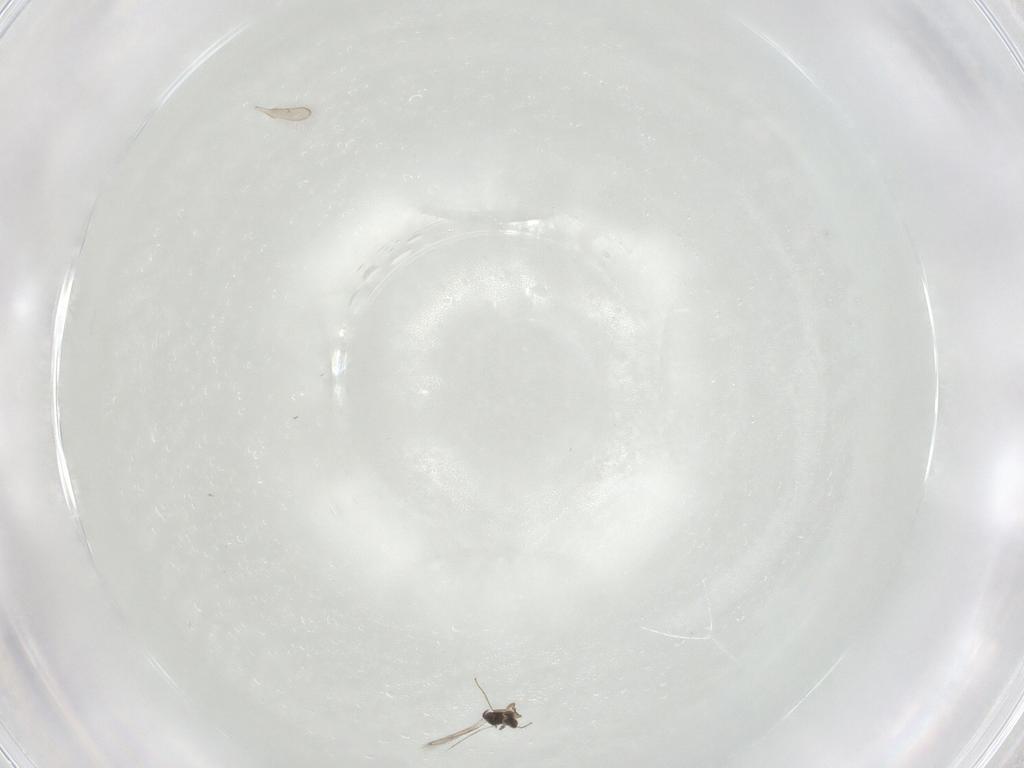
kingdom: Animalia
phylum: Arthropoda
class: Insecta
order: Hymenoptera
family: Pteromalidae
